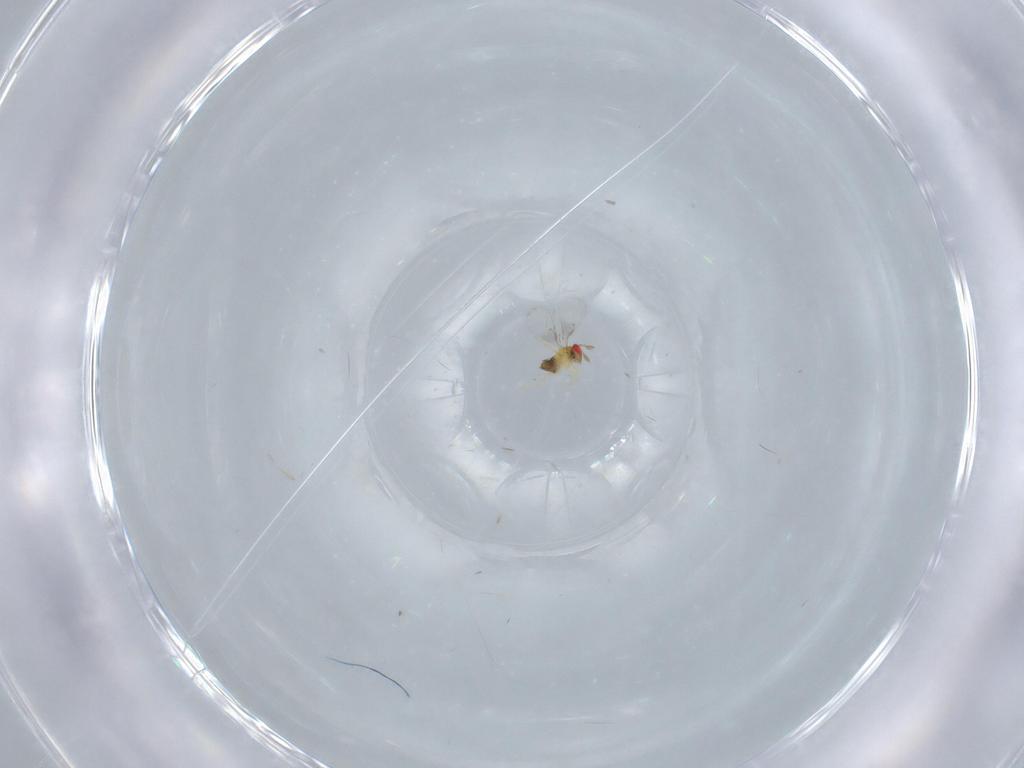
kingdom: Animalia
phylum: Arthropoda
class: Insecta
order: Hymenoptera
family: Trichogrammatidae
